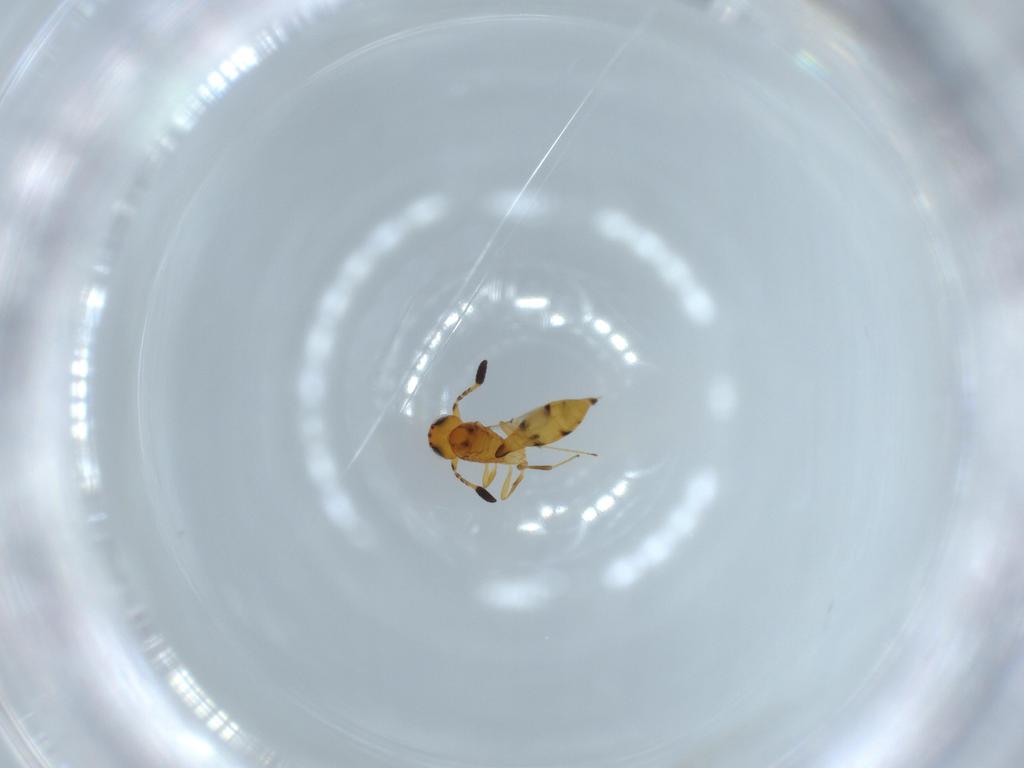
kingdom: Animalia
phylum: Arthropoda
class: Insecta
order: Hymenoptera
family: Scelionidae
